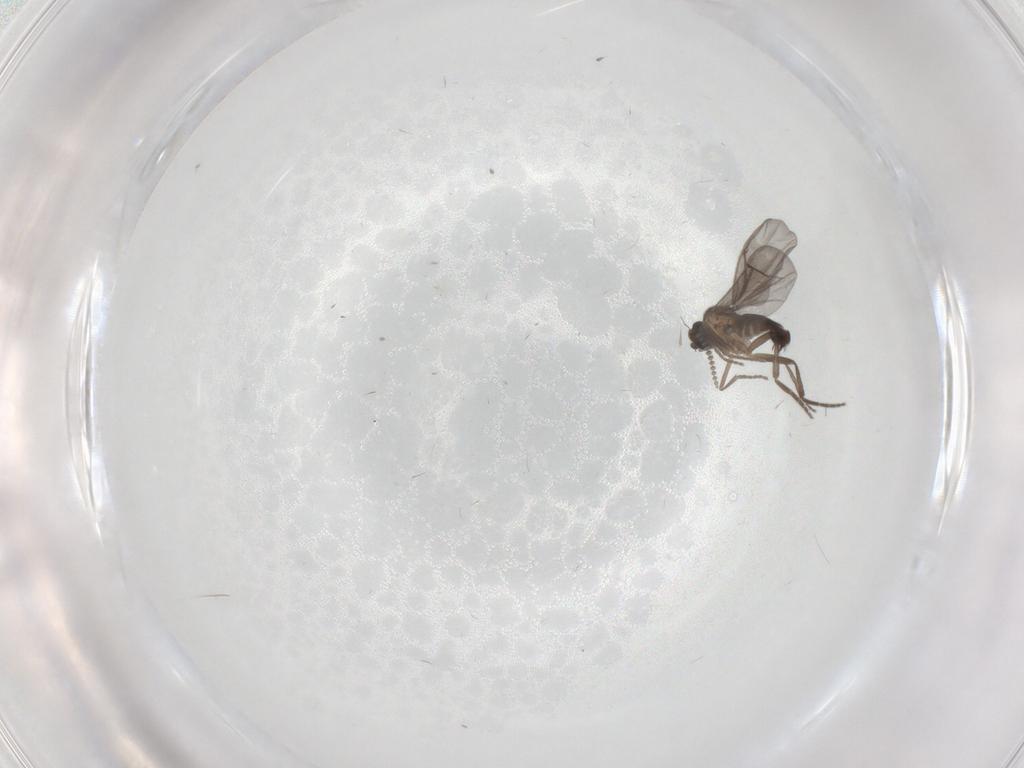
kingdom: Animalia
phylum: Arthropoda
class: Insecta
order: Diptera
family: Phoridae
